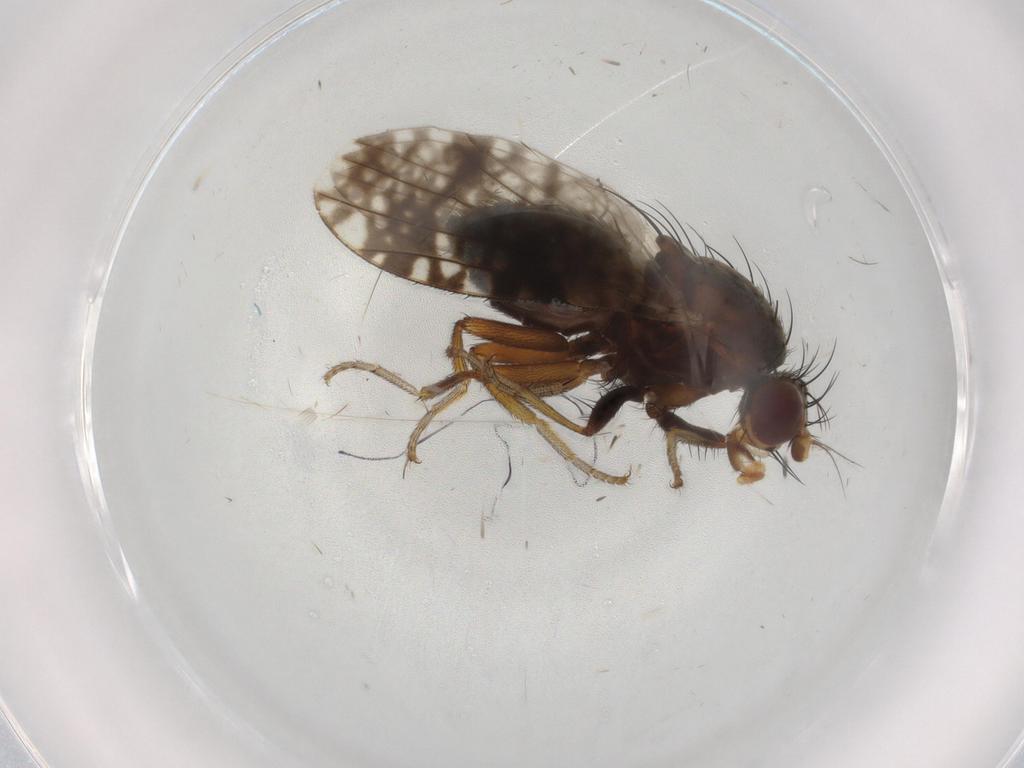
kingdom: Animalia
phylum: Arthropoda
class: Insecta
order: Diptera
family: Tephritidae
